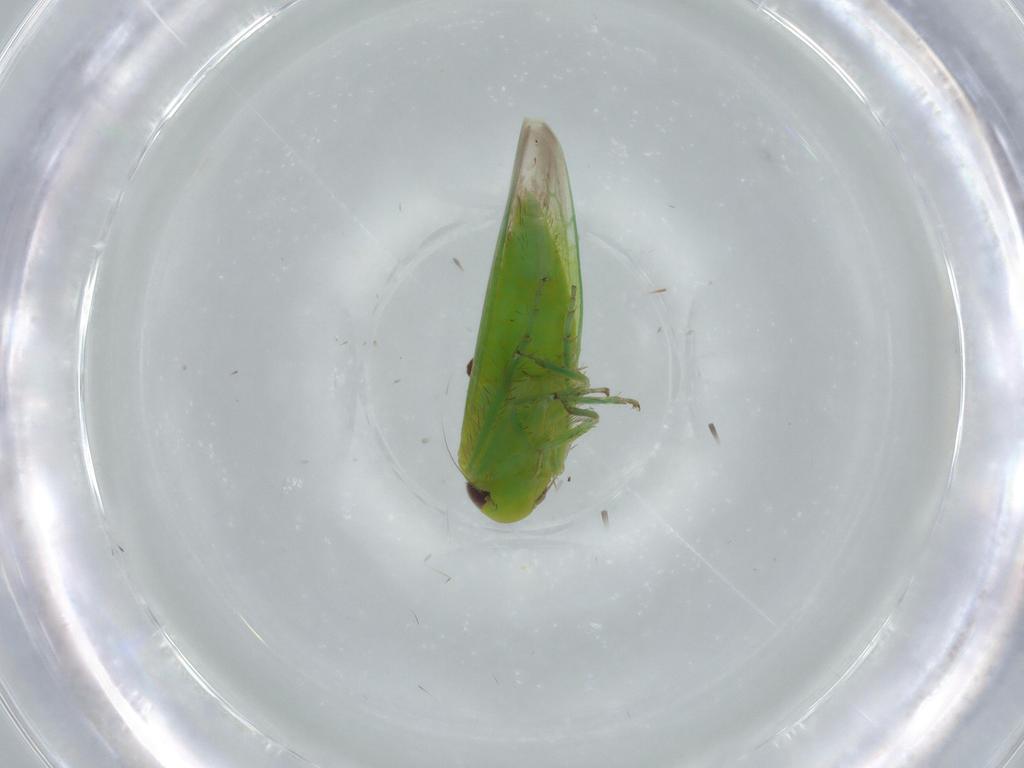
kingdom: Animalia
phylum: Arthropoda
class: Insecta
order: Hemiptera
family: Cicadellidae
